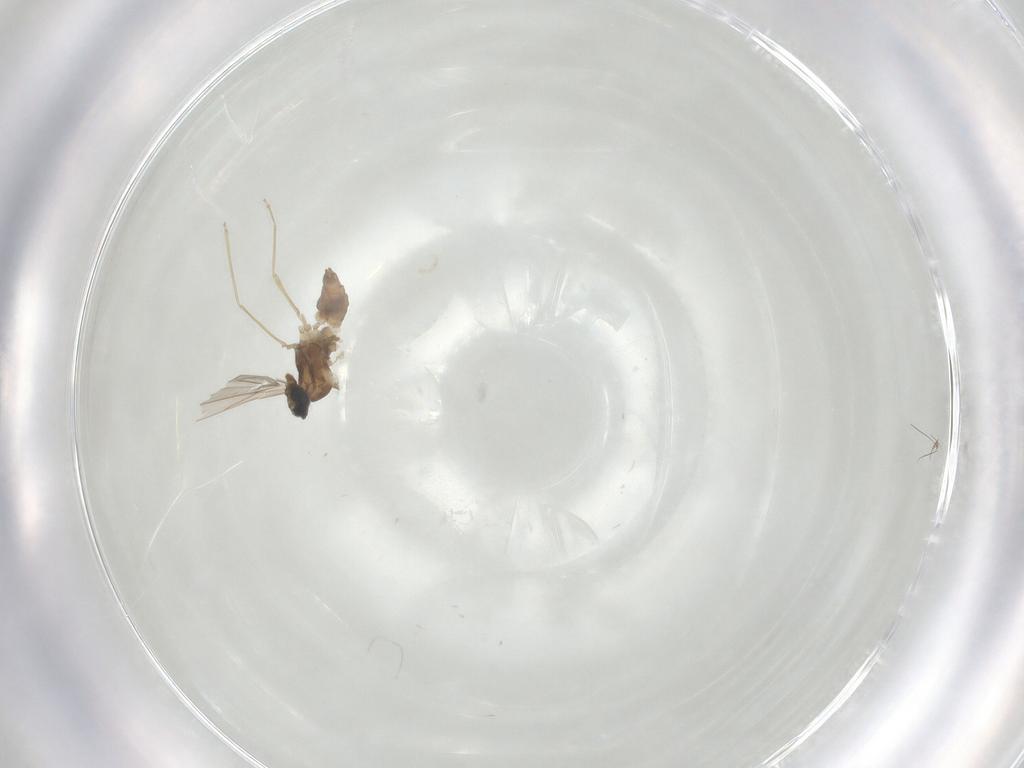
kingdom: Animalia
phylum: Arthropoda
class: Insecta
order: Diptera
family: Cecidomyiidae
